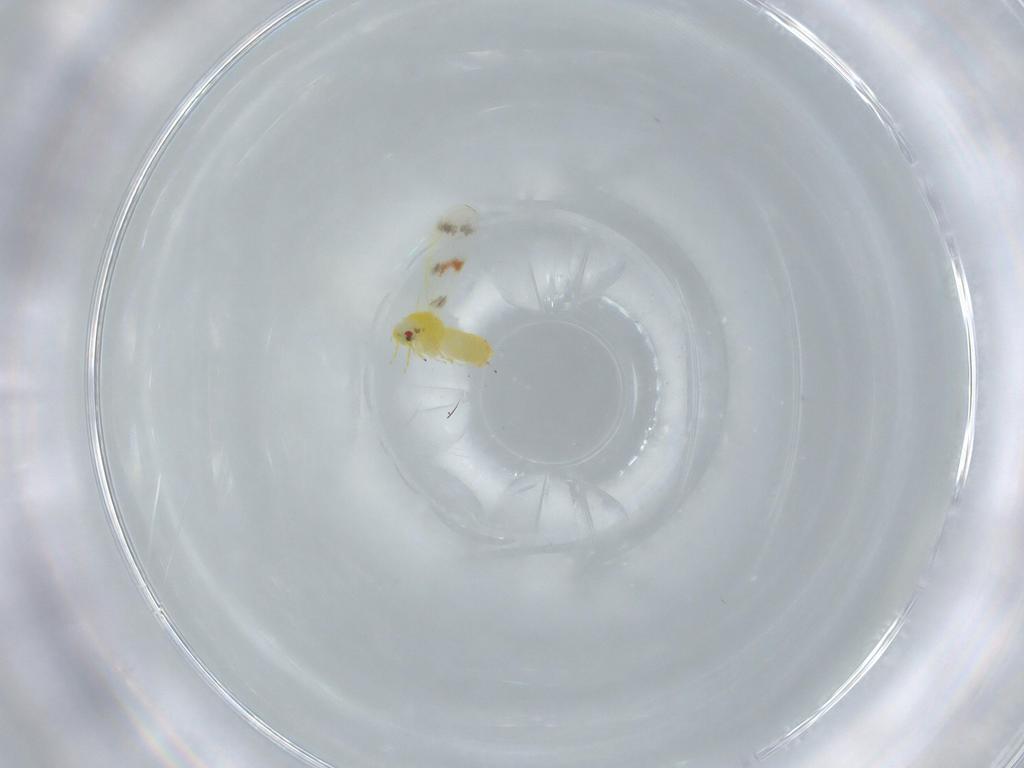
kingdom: Animalia
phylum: Arthropoda
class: Insecta
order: Hemiptera
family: Aleyrodidae
